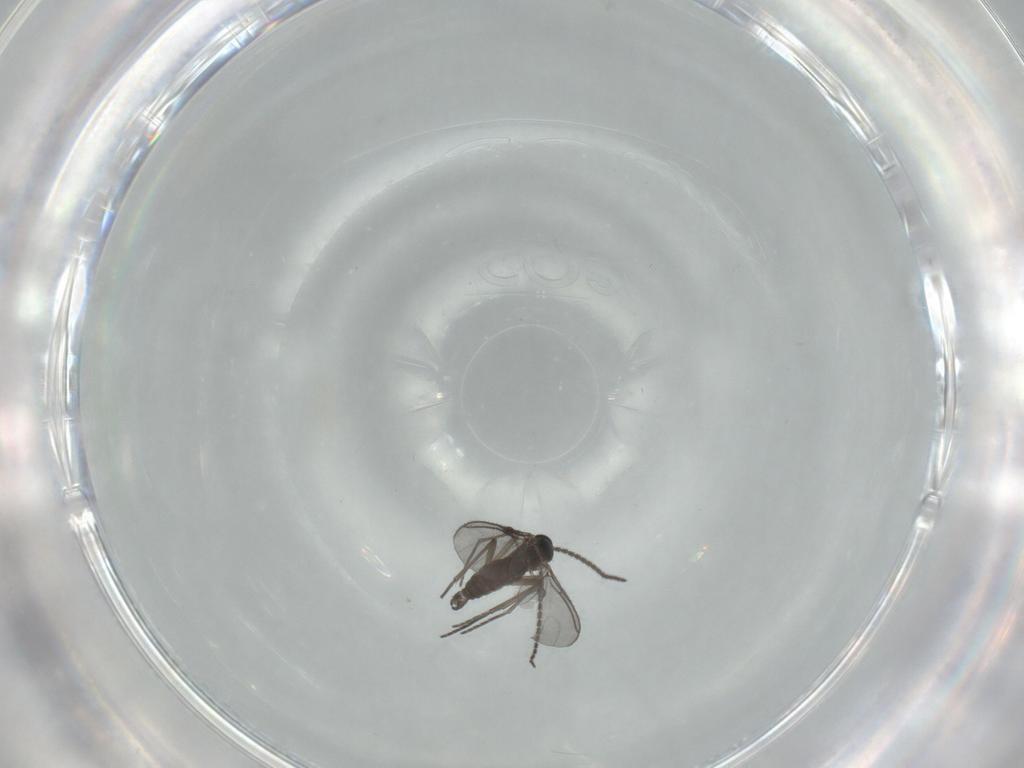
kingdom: Animalia
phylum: Arthropoda
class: Insecta
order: Diptera
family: Sciaridae
